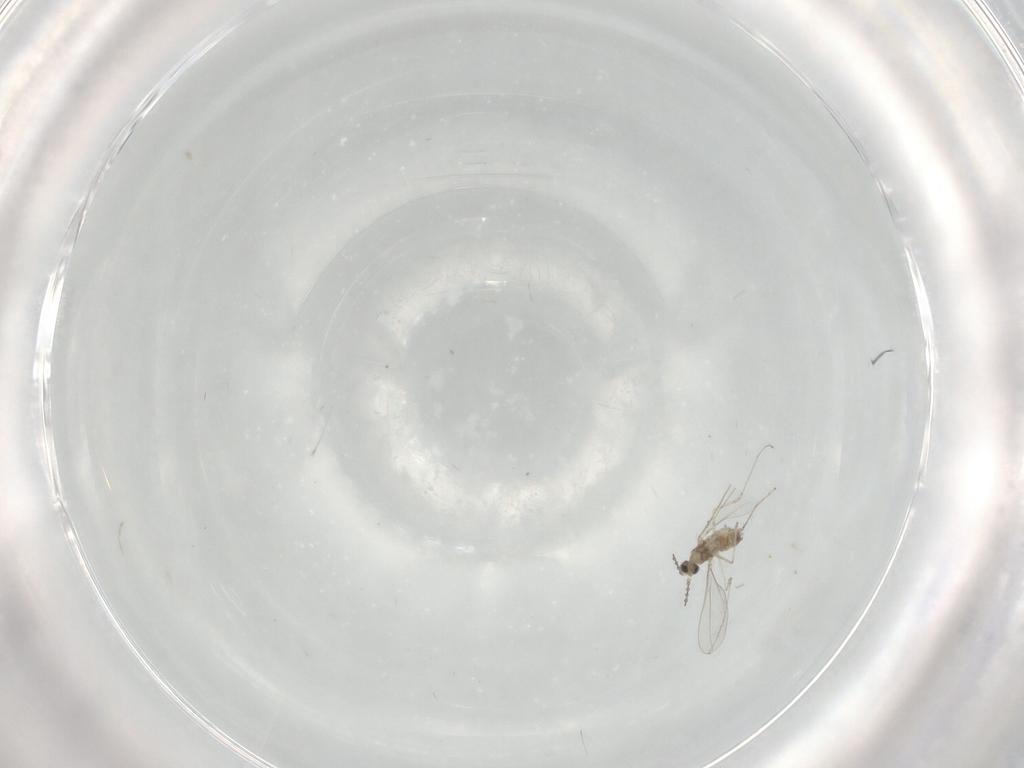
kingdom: Animalia
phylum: Arthropoda
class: Insecta
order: Diptera
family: Cecidomyiidae
